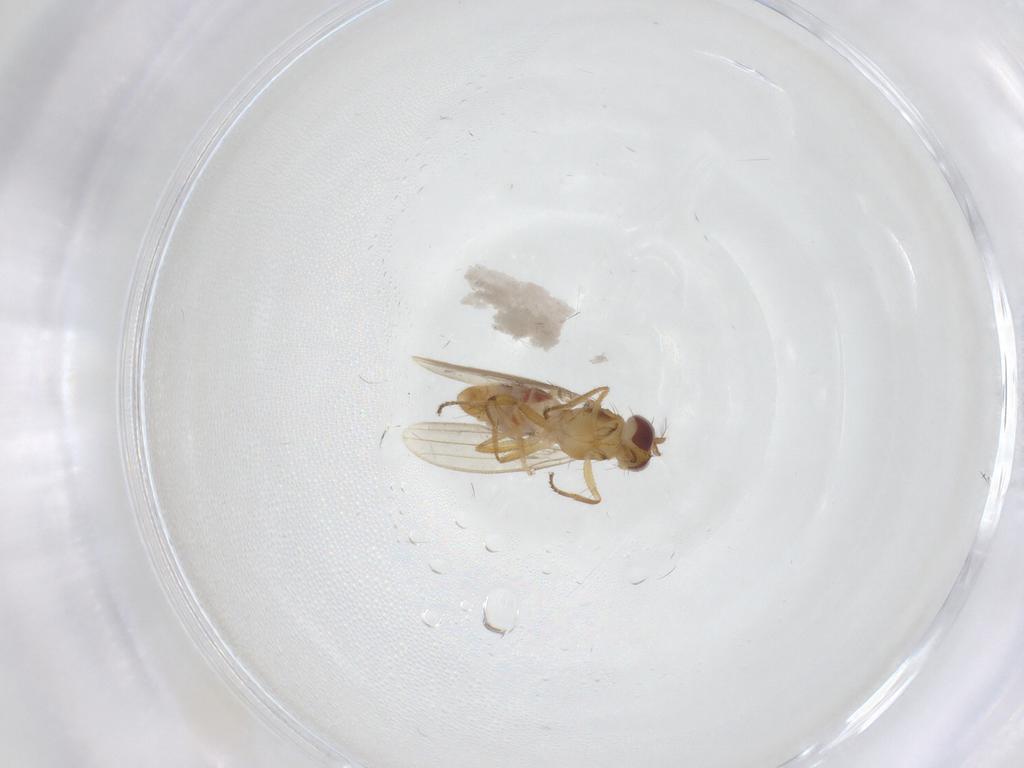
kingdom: Animalia
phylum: Arthropoda
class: Insecta
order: Diptera
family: Periscelididae
